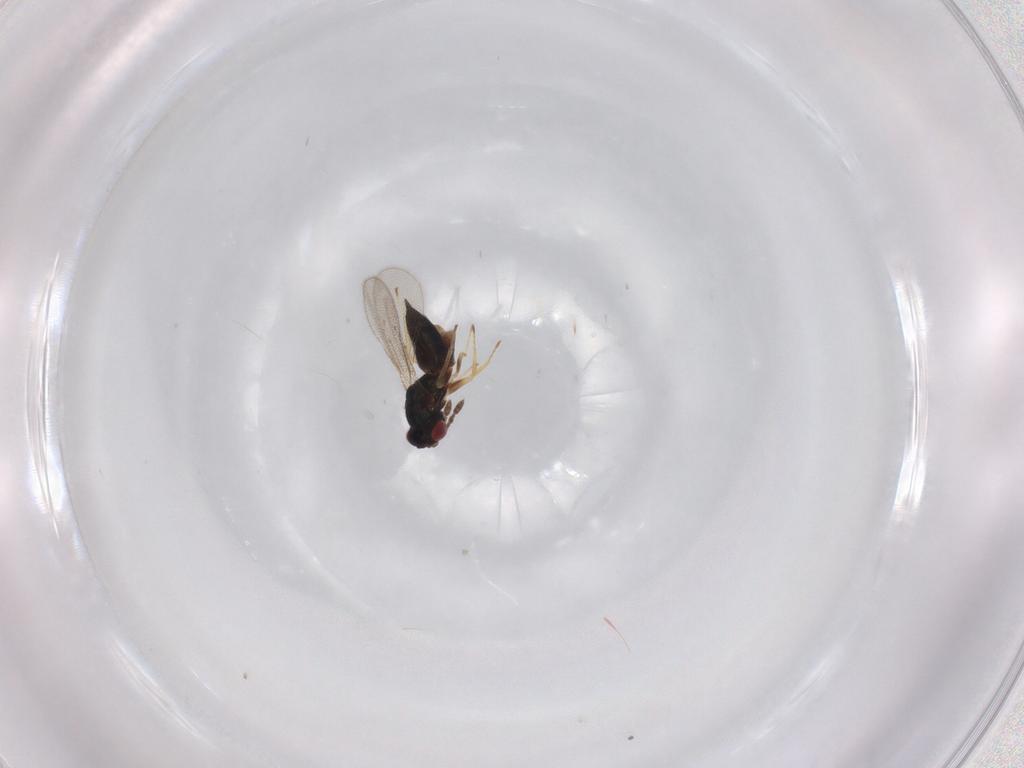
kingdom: Animalia
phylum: Arthropoda
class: Insecta
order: Hymenoptera
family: Eulophidae
